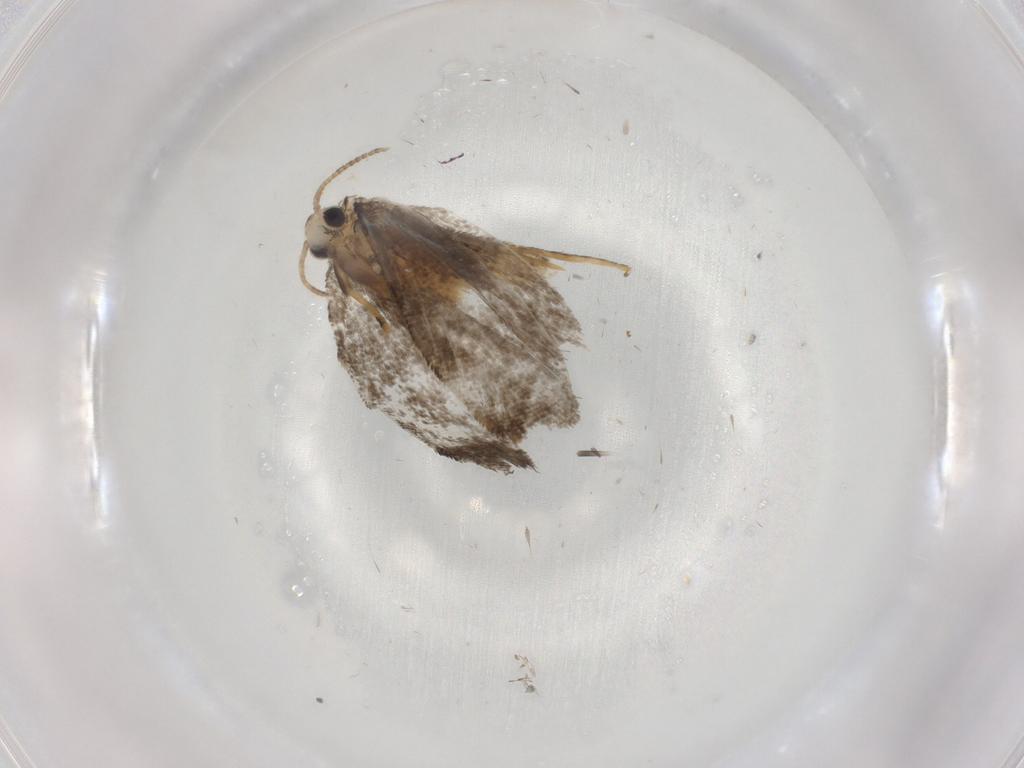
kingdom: Animalia
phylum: Arthropoda
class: Insecta
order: Lepidoptera
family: Psychidae
